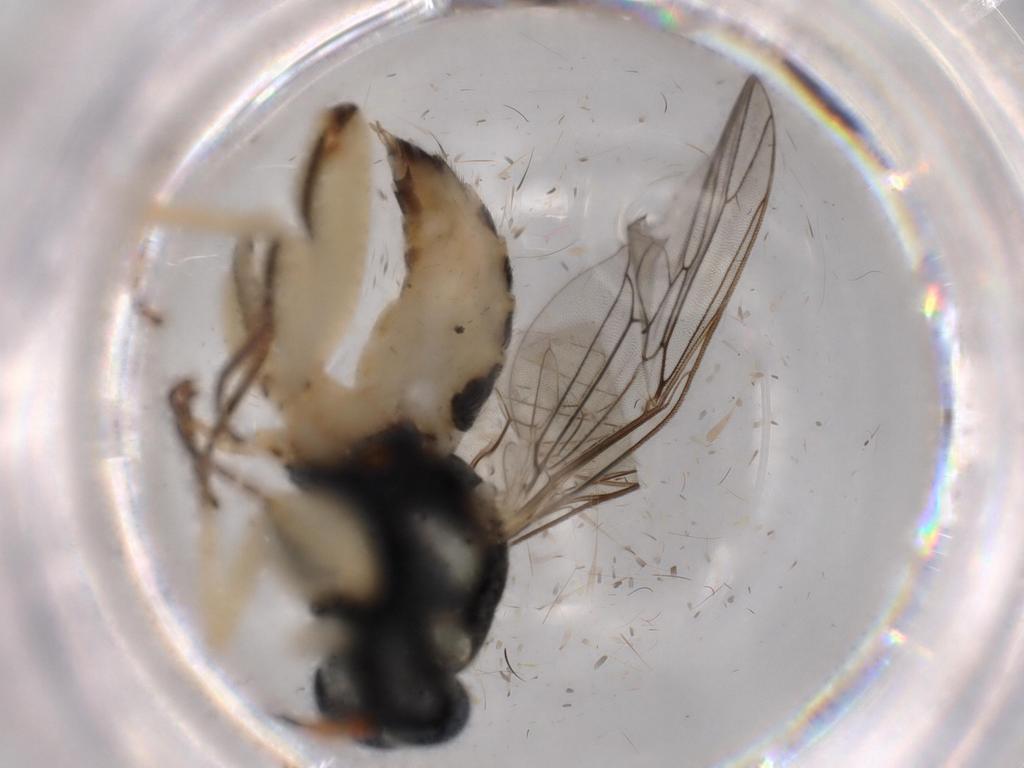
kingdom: Animalia
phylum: Arthropoda
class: Insecta
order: Diptera
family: Sciaridae
